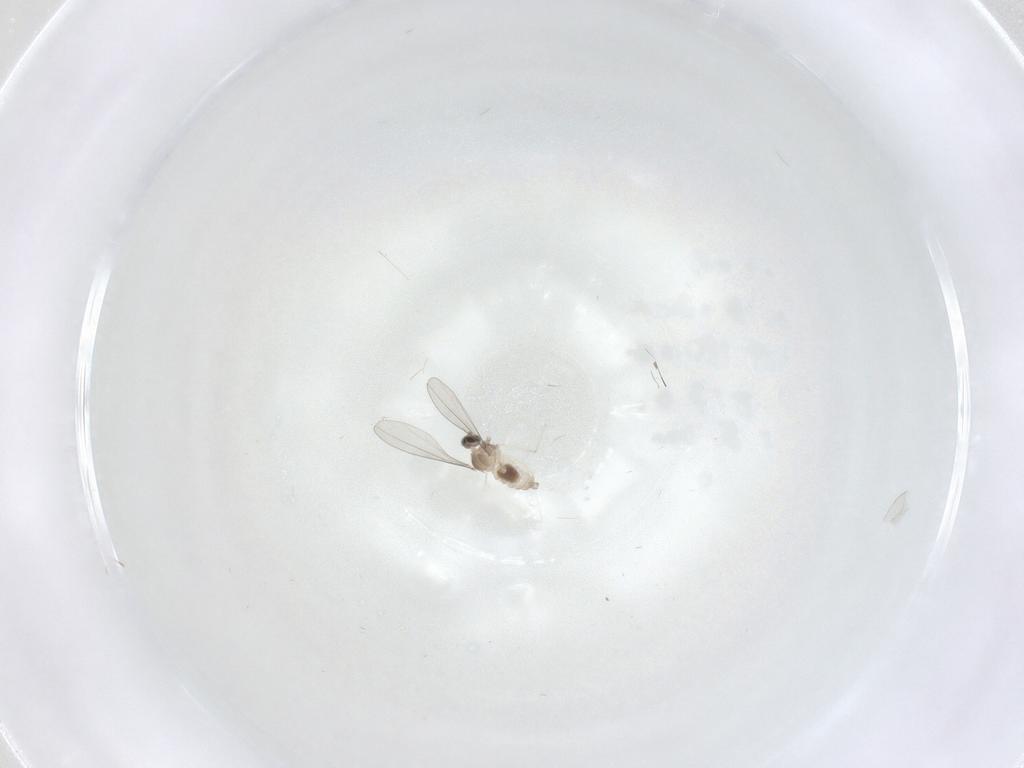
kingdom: Animalia
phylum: Arthropoda
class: Insecta
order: Diptera
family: Cecidomyiidae
